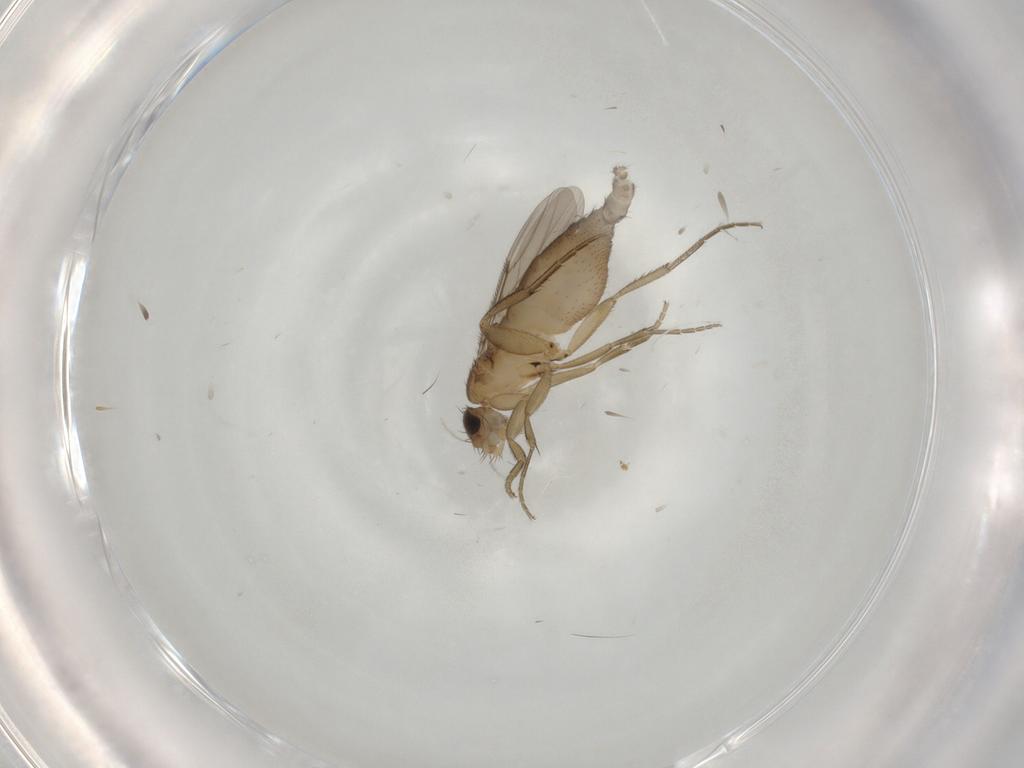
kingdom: Animalia
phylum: Arthropoda
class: Insecta
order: Diptera
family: Phoridae
